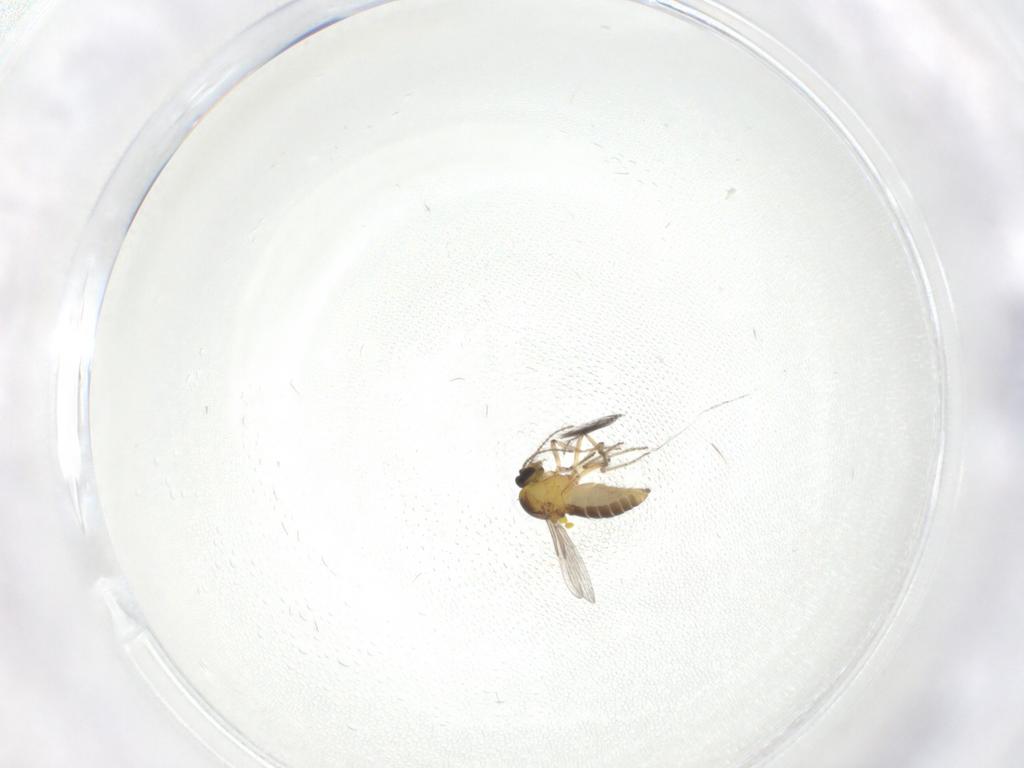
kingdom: Animalia
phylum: Arthropoda
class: Insecta
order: Diptera
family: Ceratopogonidae
